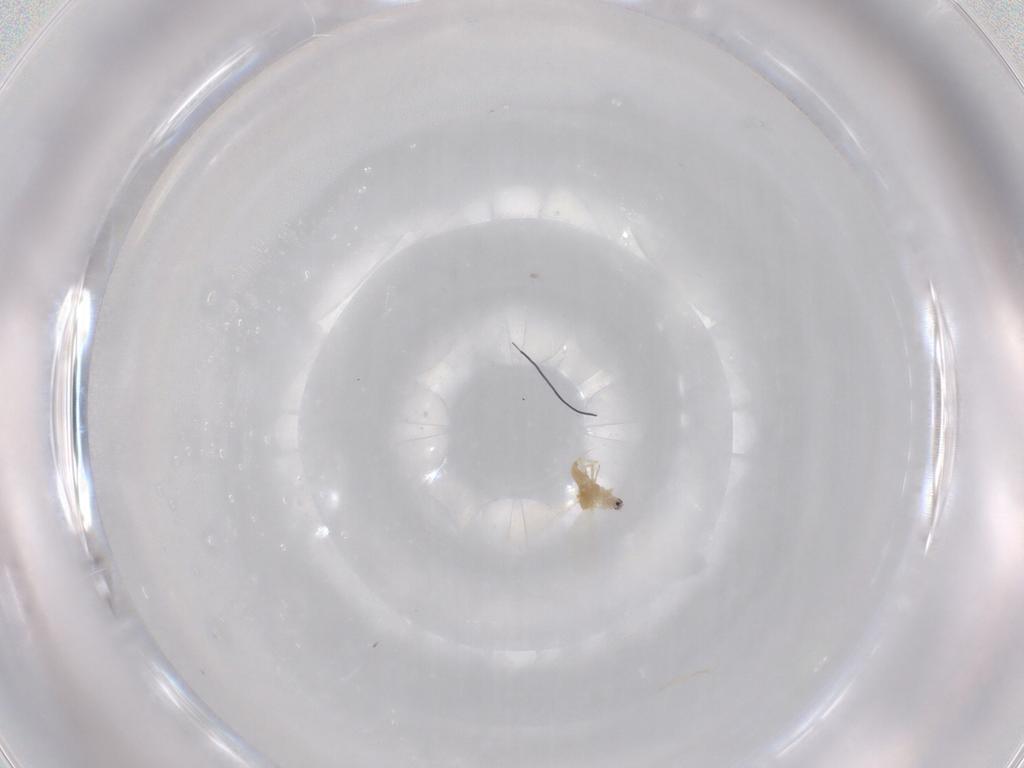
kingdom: Animalia
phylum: Arthropoda
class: Insecta
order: Hemiptera
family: Diaspididae
